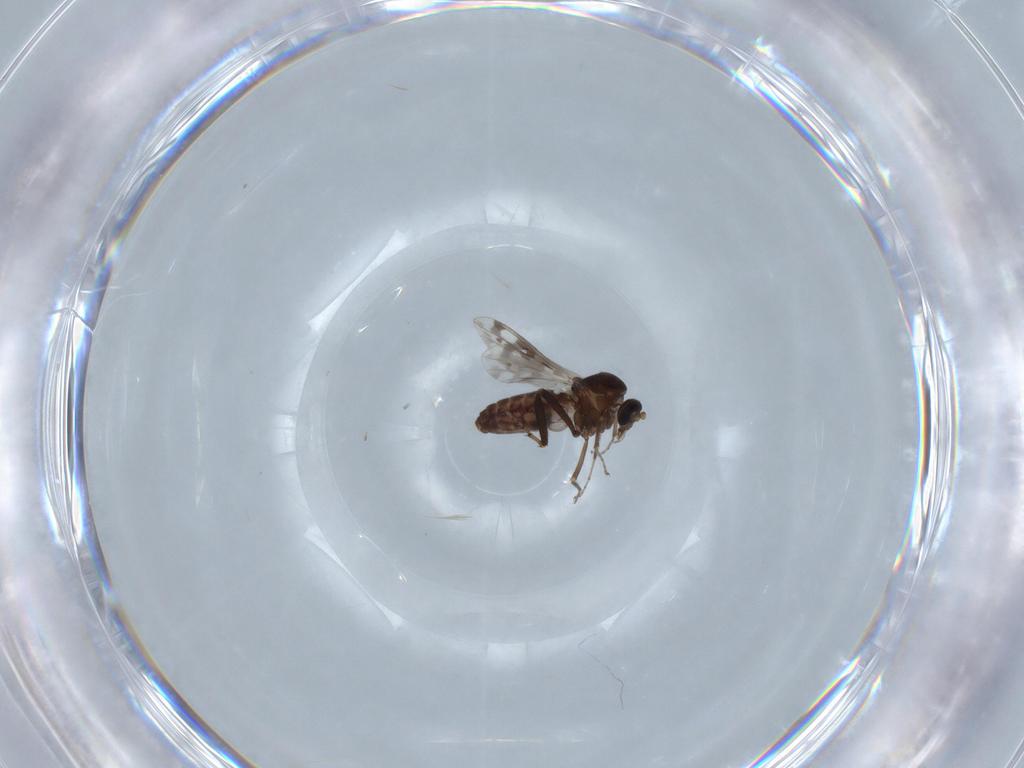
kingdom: Animalia
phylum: Arthropoda
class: Insecta
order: Diptera
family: Ceratopogonidae
